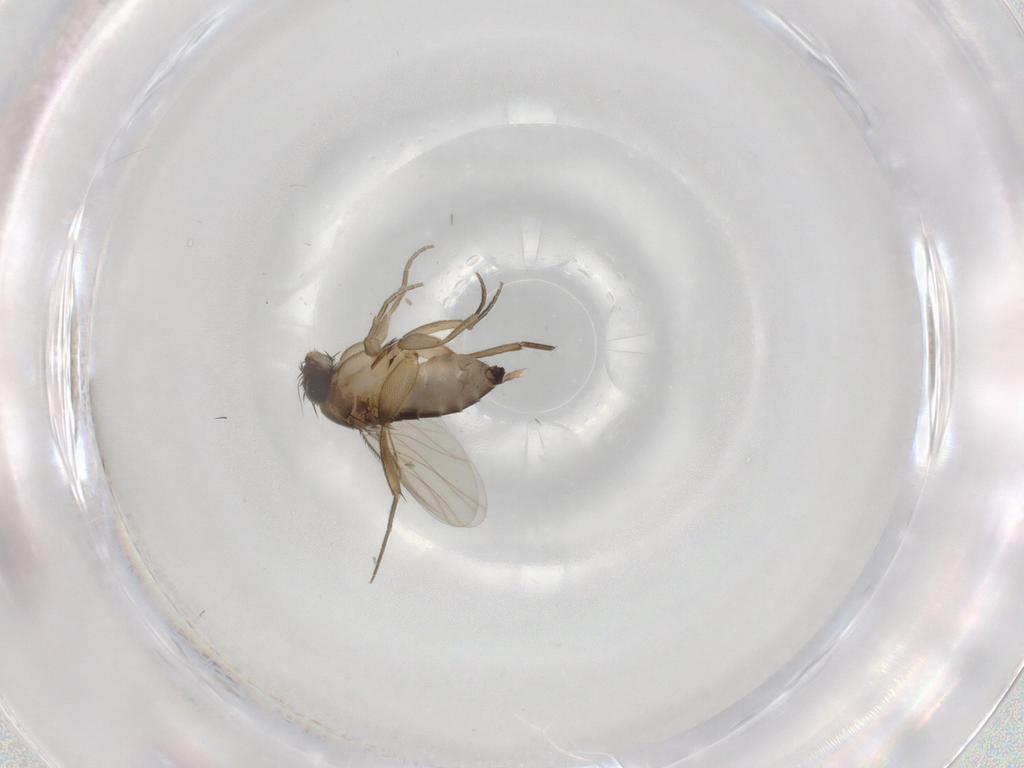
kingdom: Animalia
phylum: Arthropoda
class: Insecta
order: Diptera
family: Phoridae
